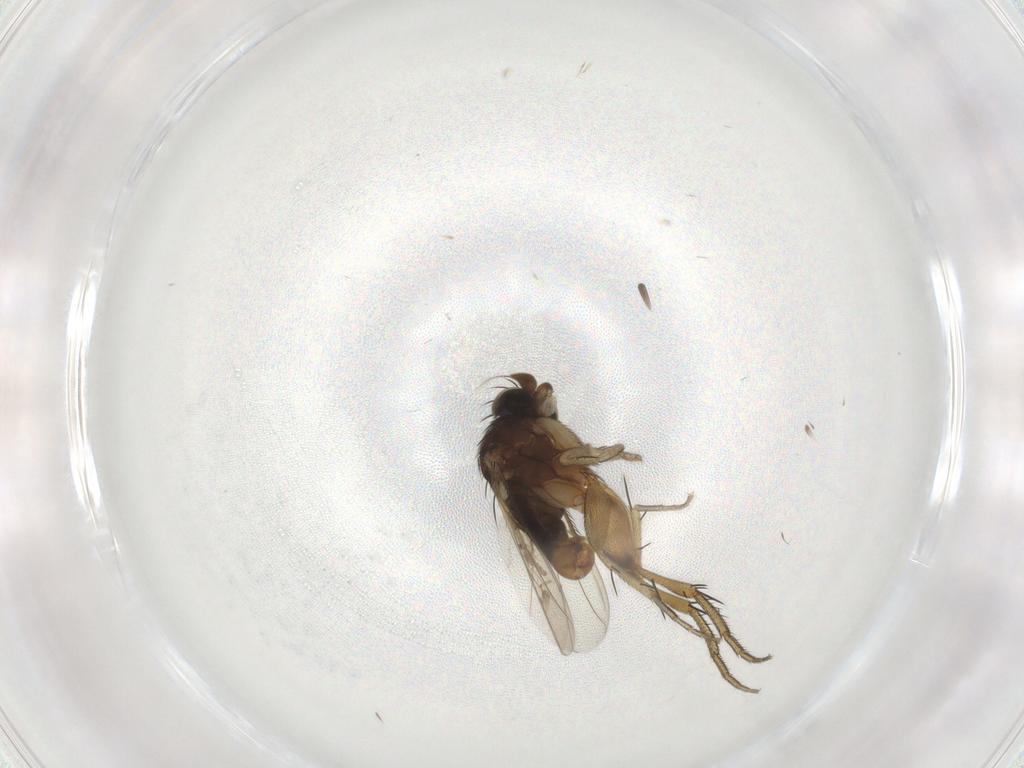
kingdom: Animalia
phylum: Arthropoda
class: Insecta
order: Diptera
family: Phoridae
